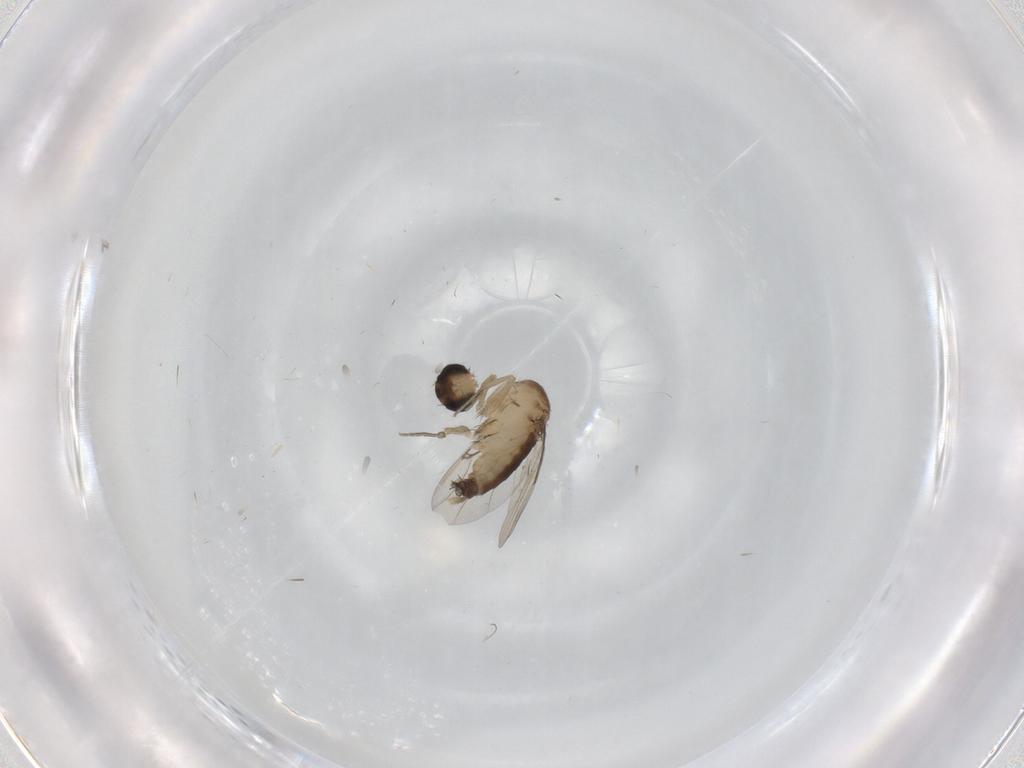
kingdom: Animalia
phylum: Arthropoda
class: Insecta
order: Diptera
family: Phoridae
